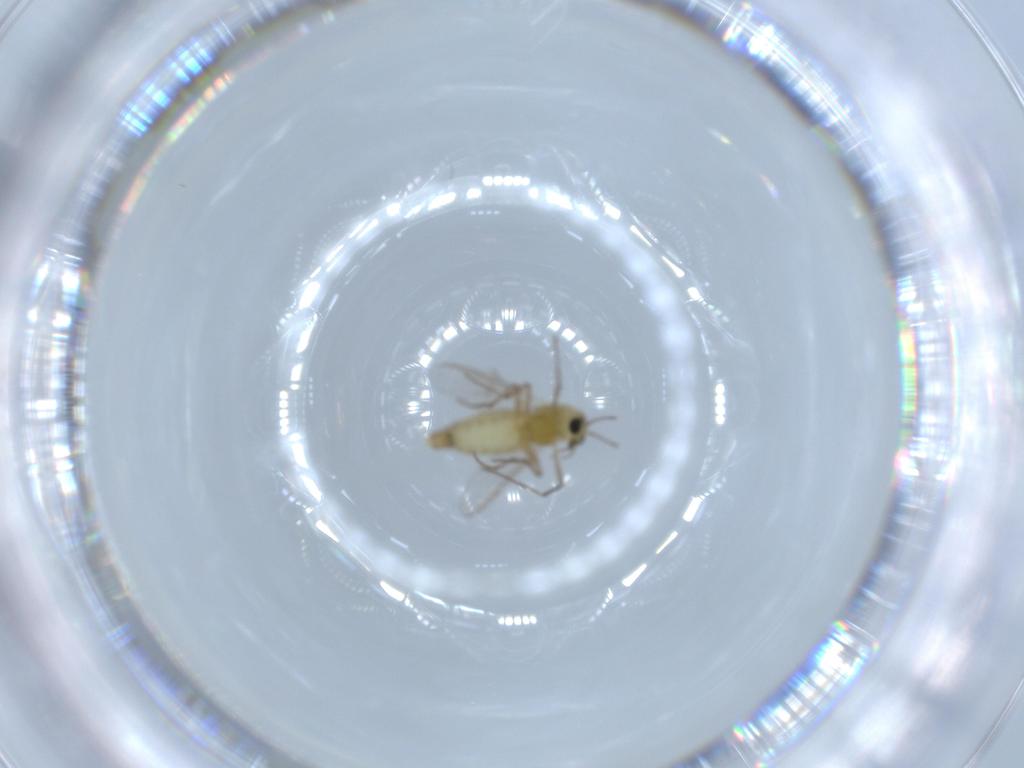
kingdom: Animalia
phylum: Arthropoda
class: Insecta
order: Diptera
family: Chironomidae
